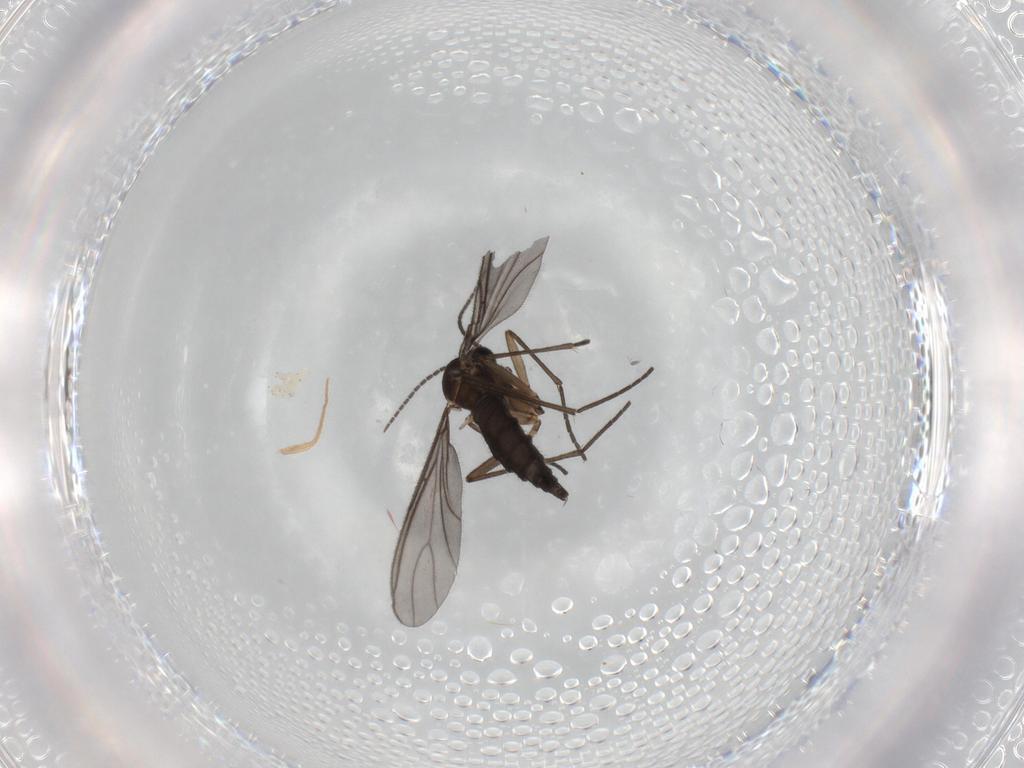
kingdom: Animalia
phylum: Arthropoda
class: Insecta
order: Diptera
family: Sciaridae
